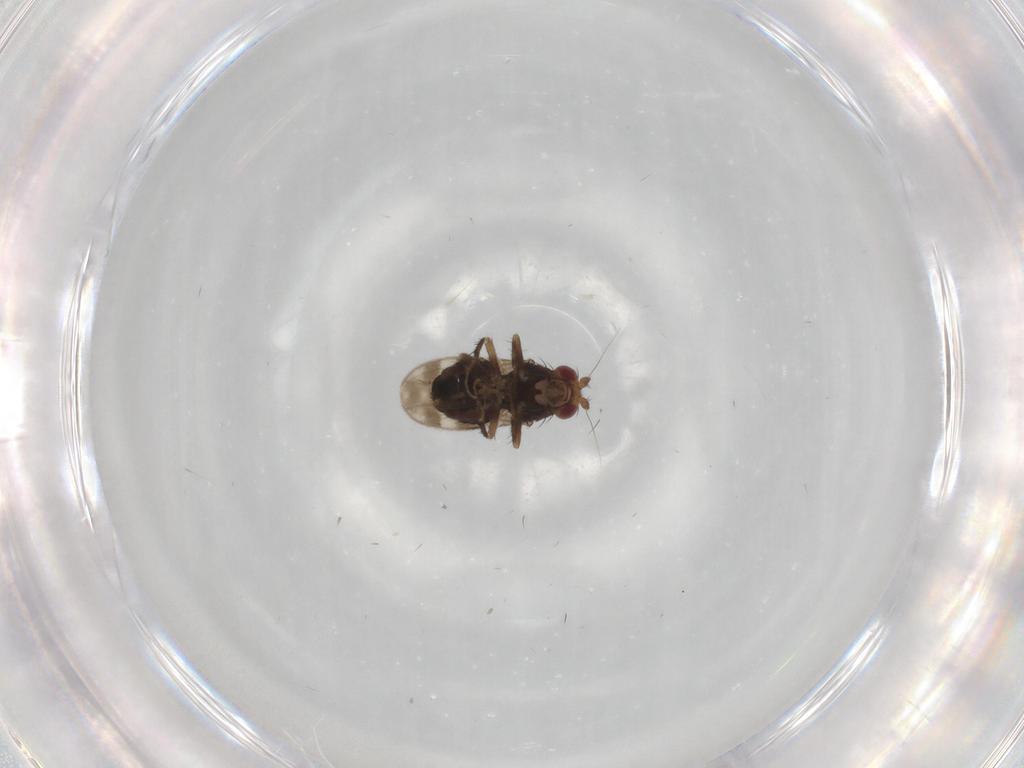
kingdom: Animalia
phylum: Arthropoda
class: Insecta
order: Diptera
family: Sphaeroceridae
